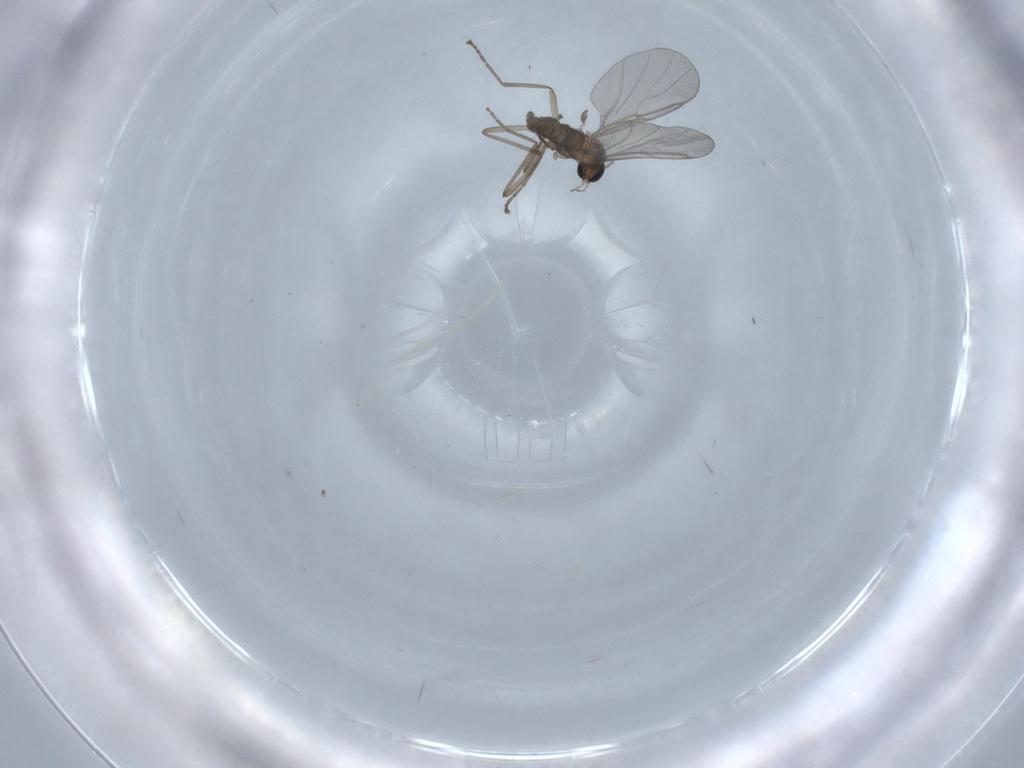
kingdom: Animalia
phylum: Arthropoda
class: Insecta
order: Diptera
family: Cecidomyiidae
